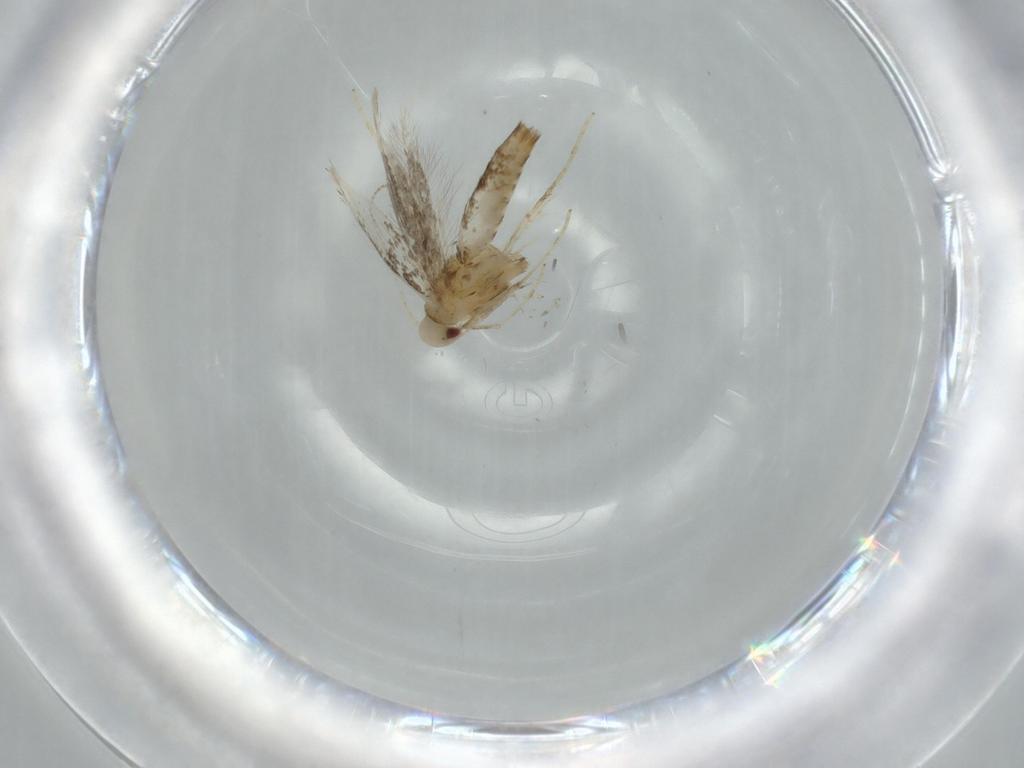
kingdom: Animalia
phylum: Arthropoda
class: Insecta
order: Lepidoptera
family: Gracillariidae
